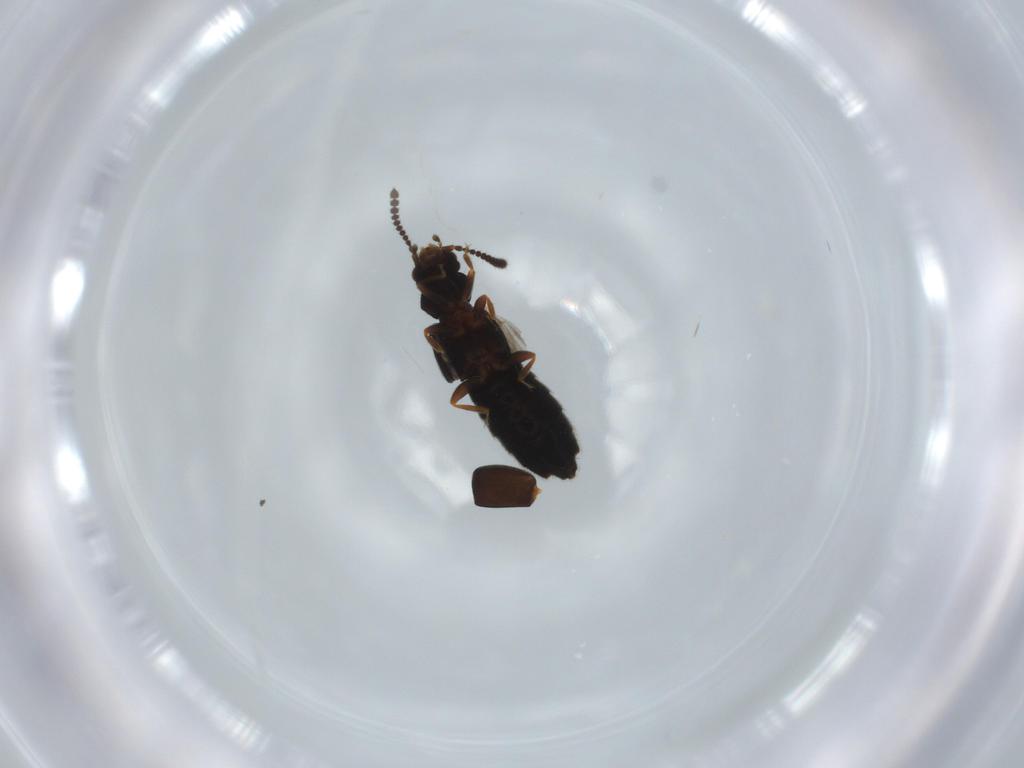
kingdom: Animalia
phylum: Arthropoda
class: Insecta
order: Coleoptera
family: Staphylinidae
